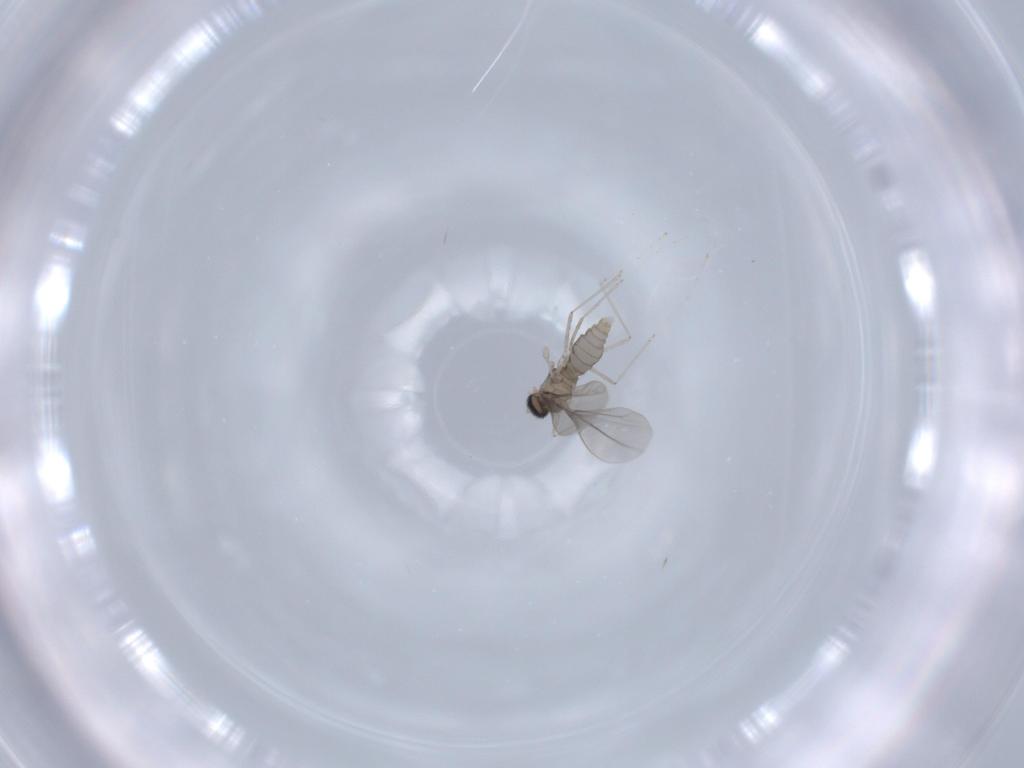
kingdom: Animalia
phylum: Arthropoda
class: Insecta
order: Diptera
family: Cecidomyiidae
